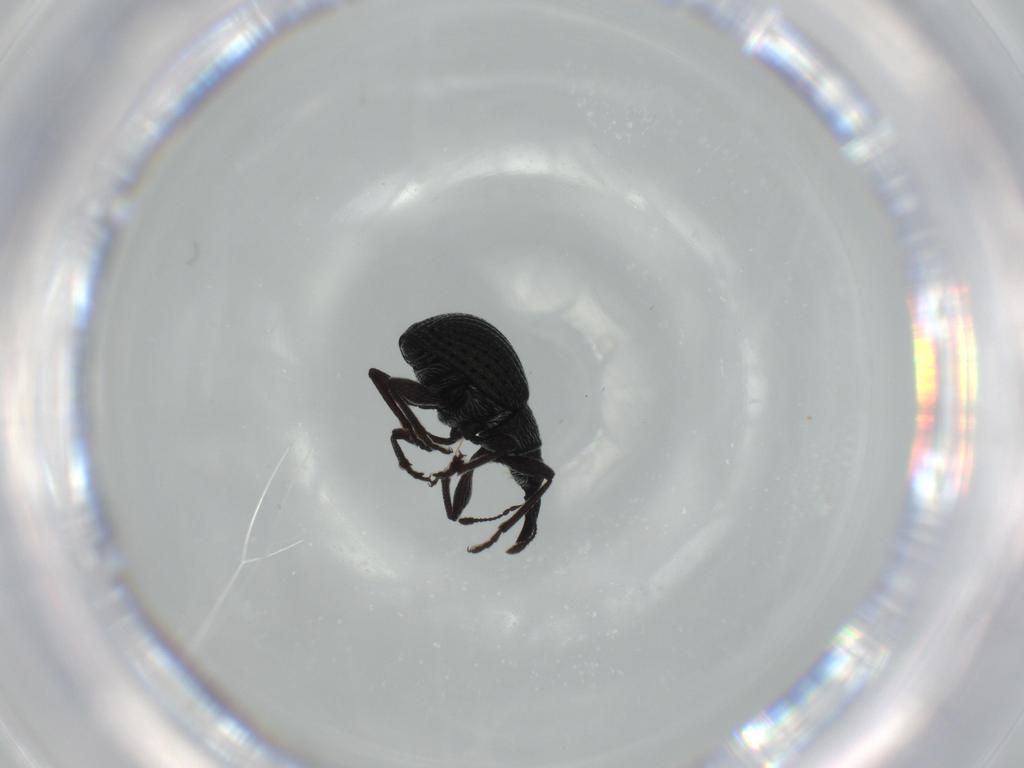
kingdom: Animalia
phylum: Arthropoda
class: Insecta
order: Coleoptera
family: Brentidae
